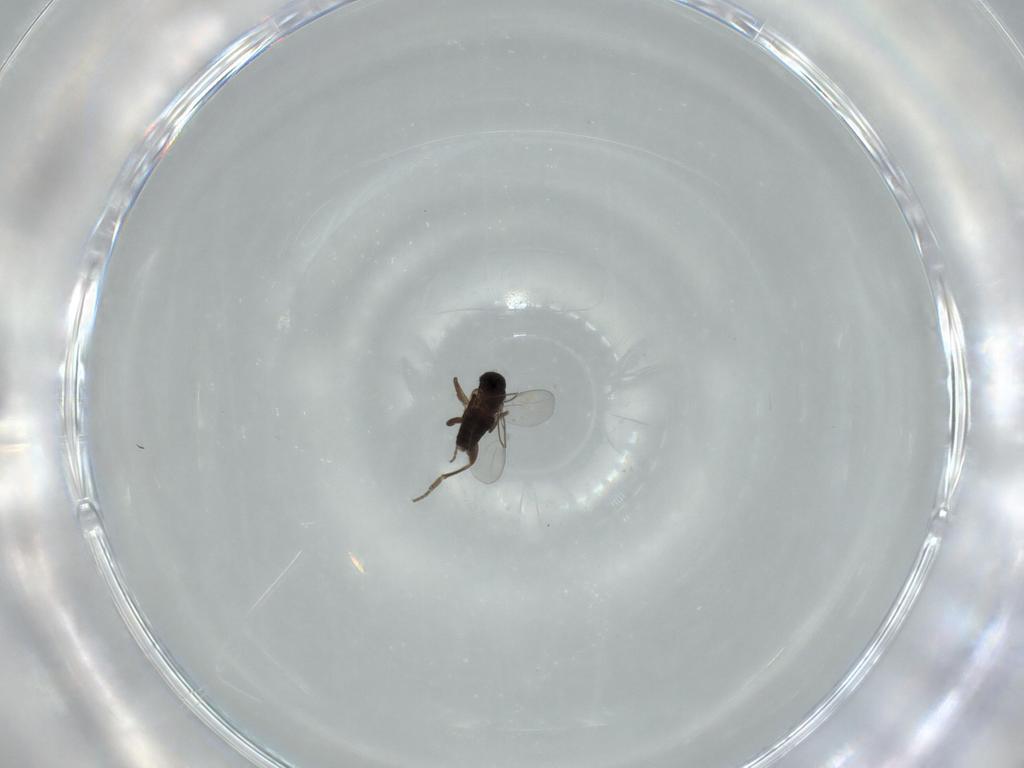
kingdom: Animalia
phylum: Arthropoda
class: Insecta
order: Diptera
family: Phoridae
